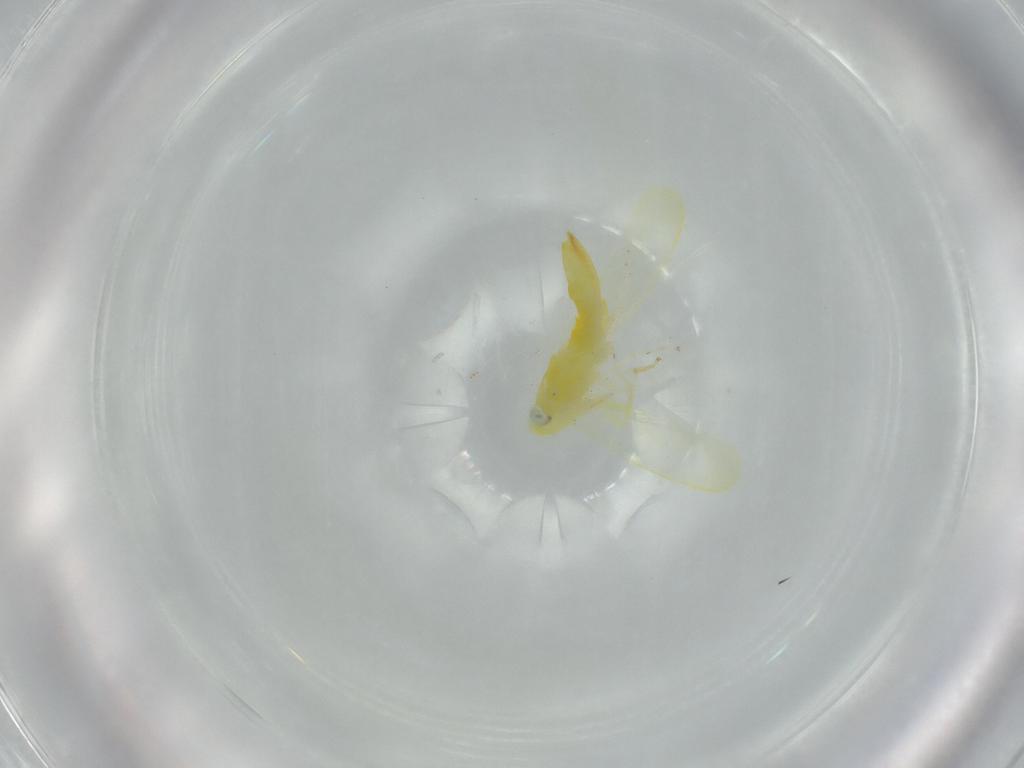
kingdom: Animalia
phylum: Arthropoda
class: Insecta
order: Hemiptera
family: Cicadellidae
